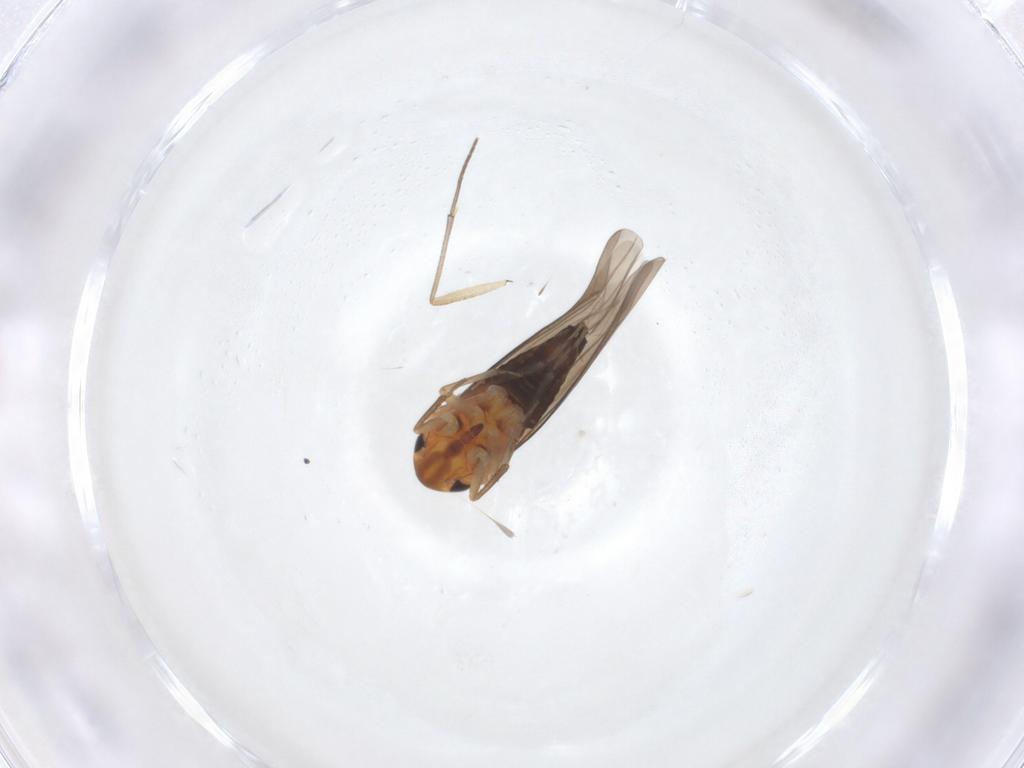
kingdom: Animalia
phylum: Arthropoda
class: Insecta
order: Hemiptera
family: Cicadellidae
